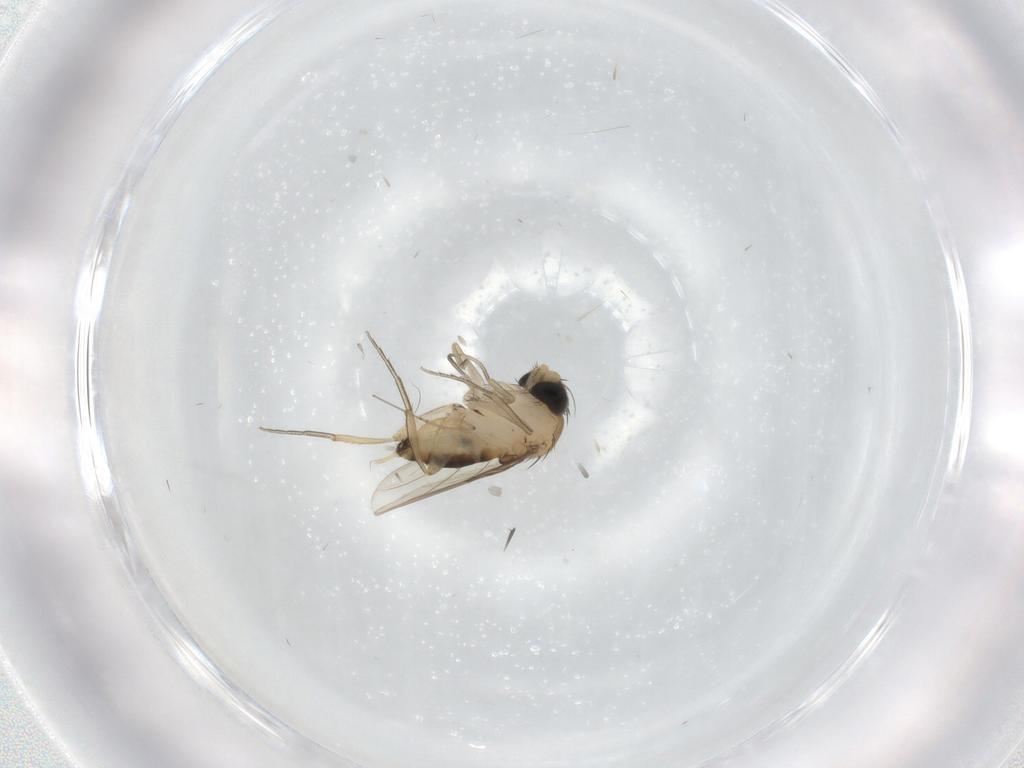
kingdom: Animalia
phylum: Arthropoda
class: Insecta
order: Diptera
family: Phoridae
